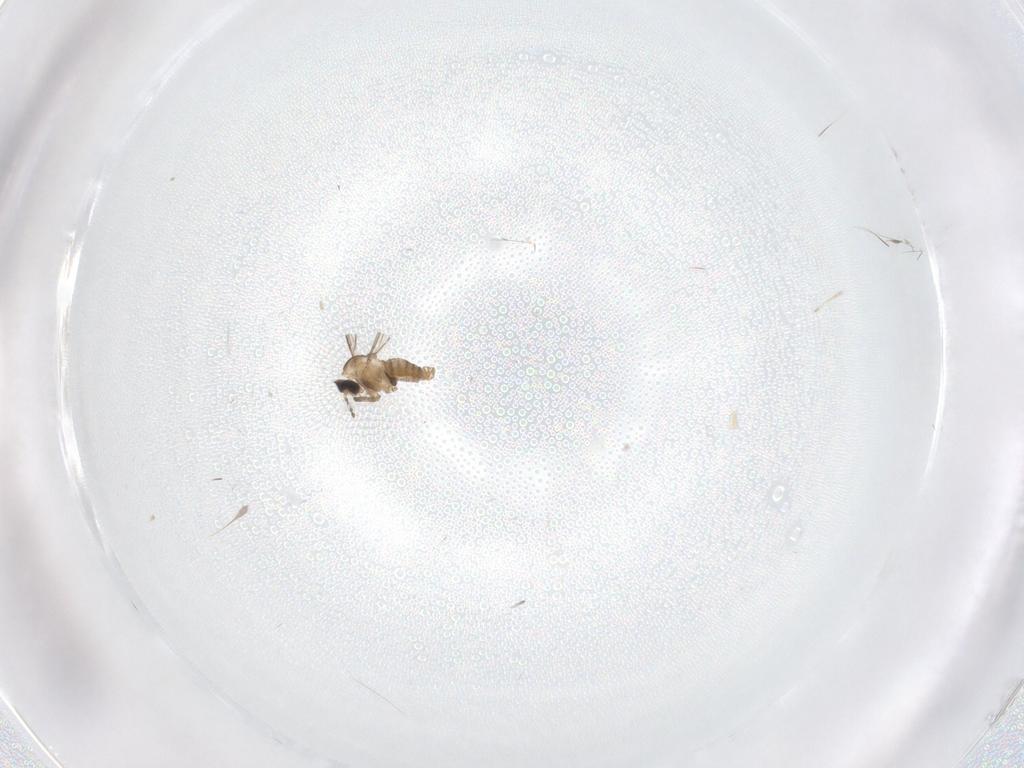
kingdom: Animalia
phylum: Arthropoda
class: Insecta
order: Diptera
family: Cecidomyiidae
